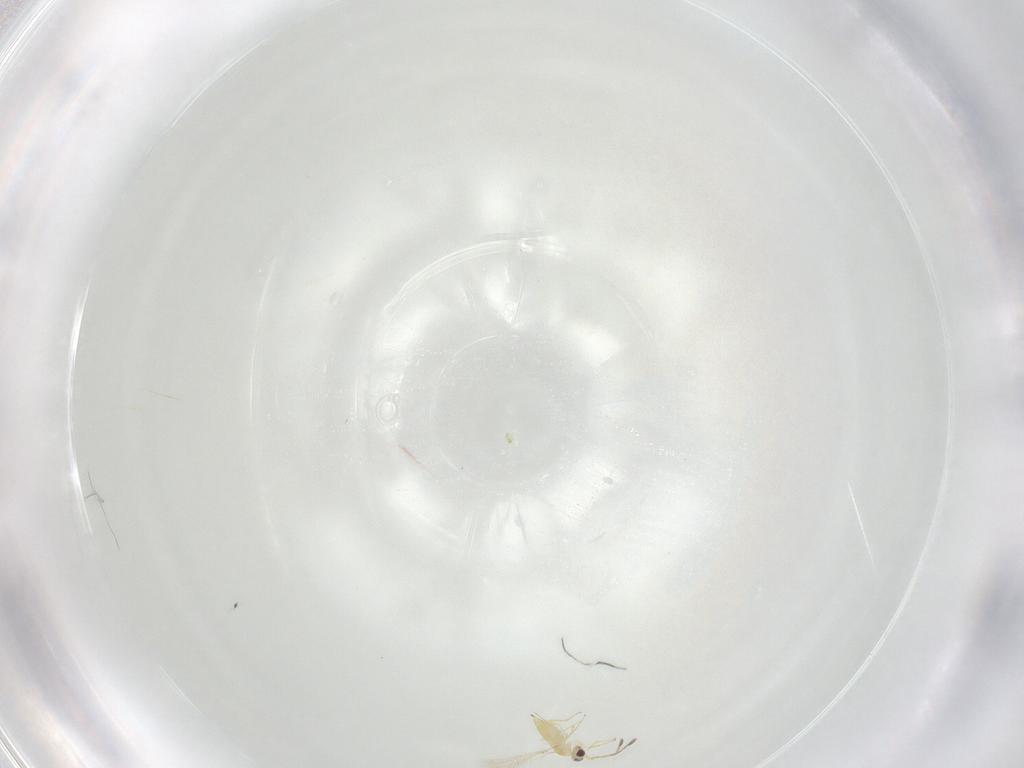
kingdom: Animalia
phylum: Arthropoda
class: Insecta
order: Hymenoptera
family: Mymaridae
